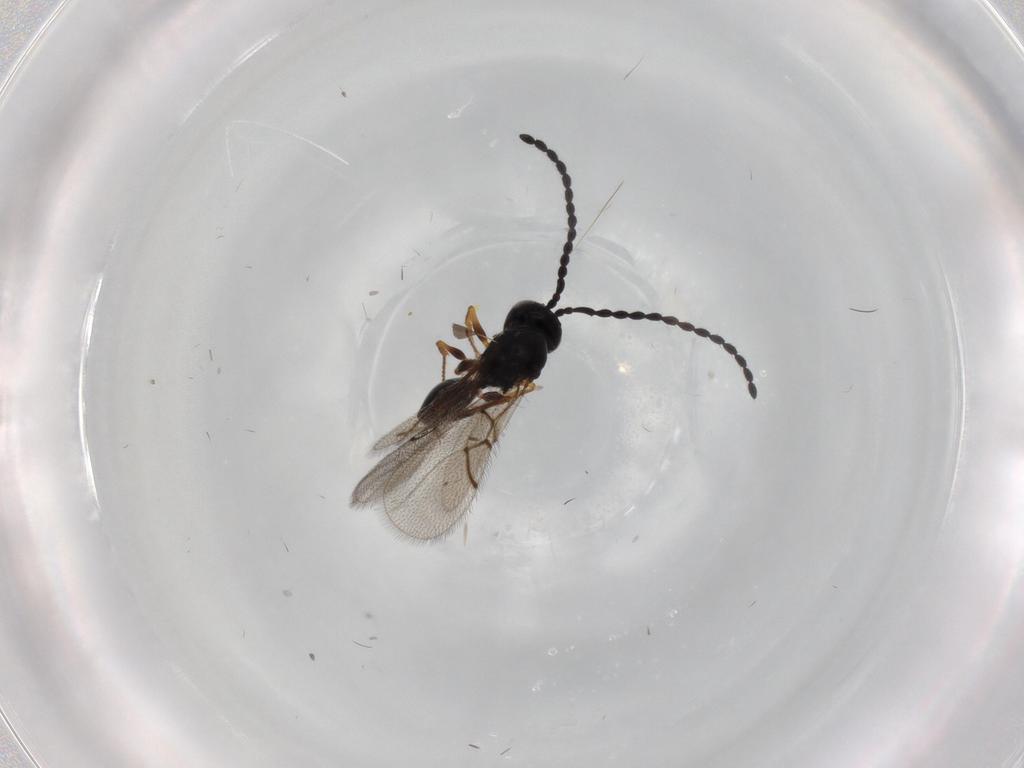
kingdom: Animalia
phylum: Arthropoda
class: Insecta
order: Hymenoptera
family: Figitidae
